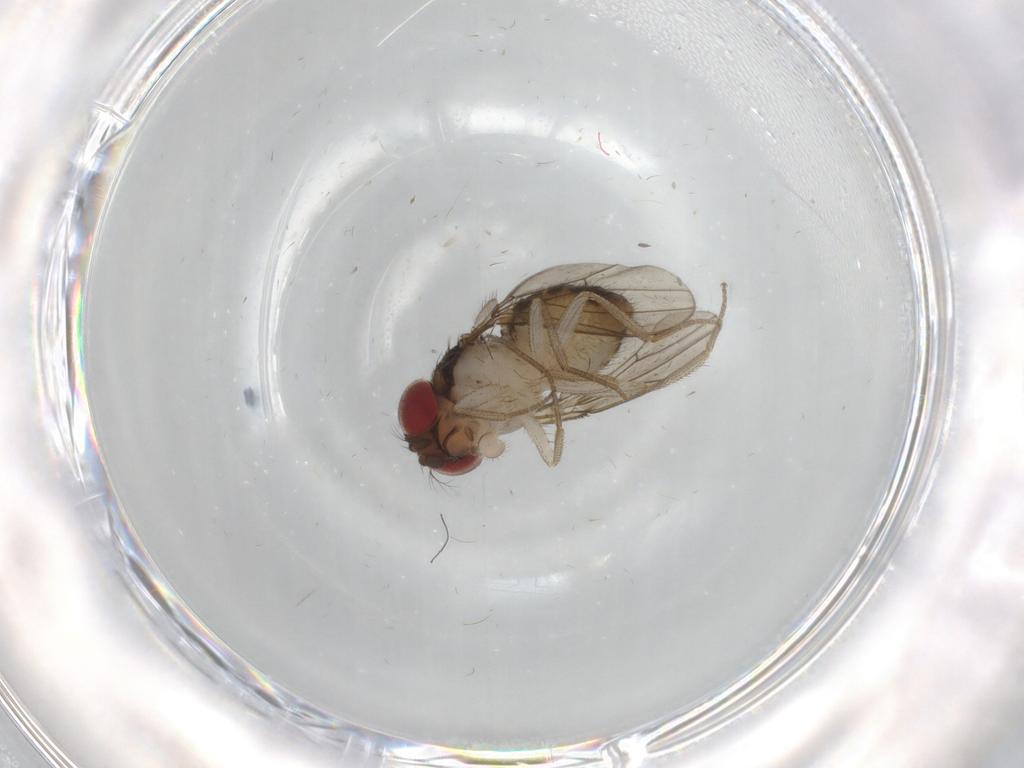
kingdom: Animalia
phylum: Arthropoda
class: Insecta
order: Diptera
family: Drosophilidae
